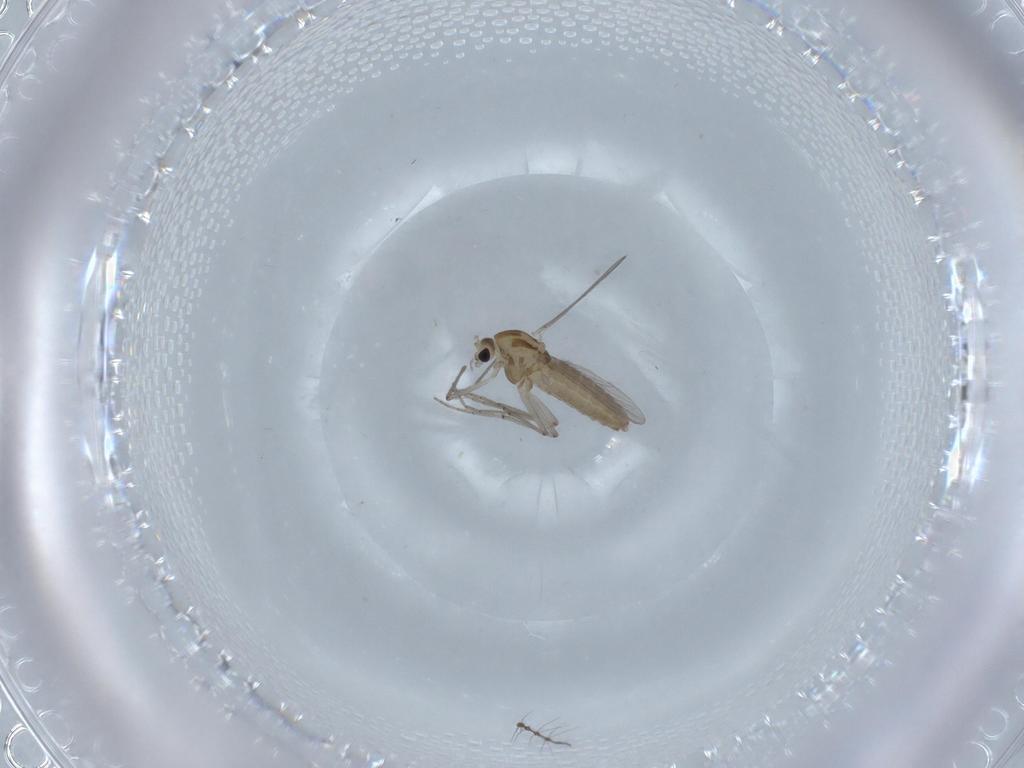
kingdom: Animalia
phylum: Arthropoda
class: Insecta
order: Diptera
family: Chironomidae
